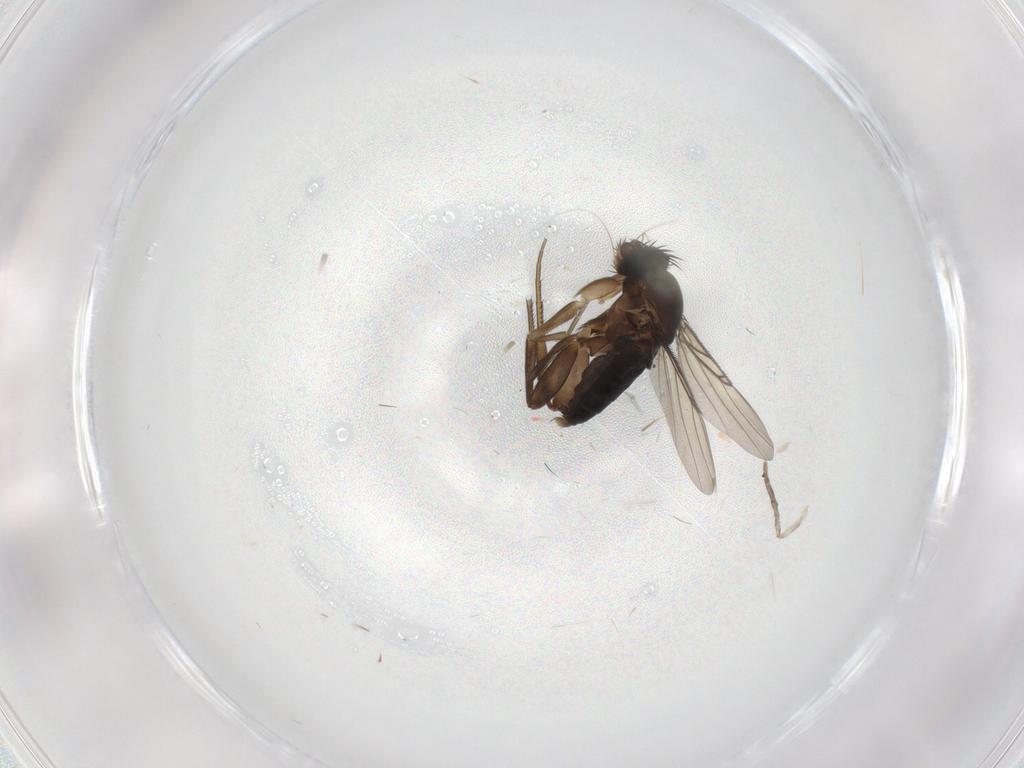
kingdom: Animalia
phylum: Arthropoda
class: Insecta
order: Diptera
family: Phoridae
